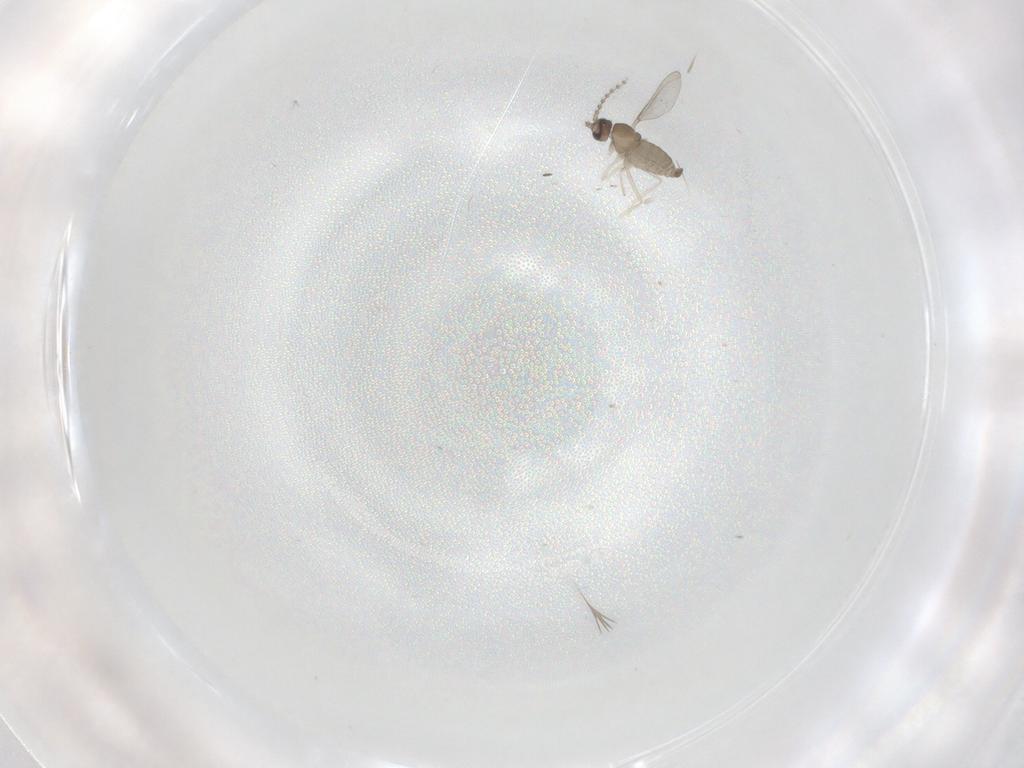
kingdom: Animalia
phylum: Arthropoda
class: Insecta
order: Diptera
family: Cecidomyiidae
